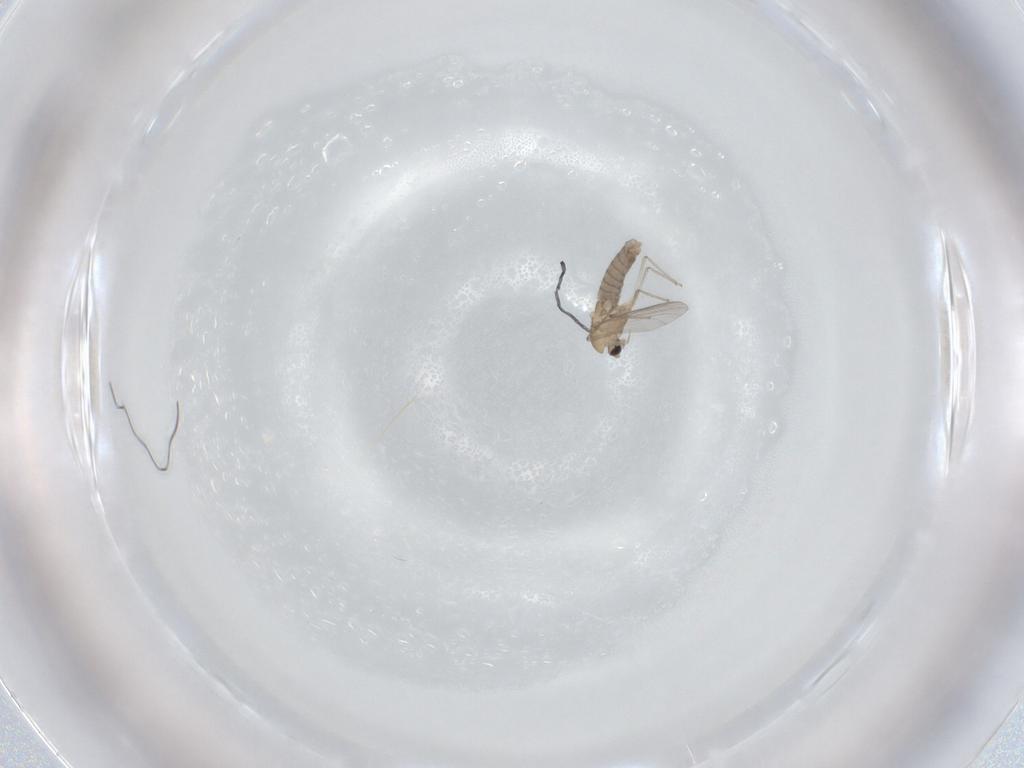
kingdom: Animalia
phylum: Arthropoda
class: Insecta
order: Diptera
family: Chironomidae
